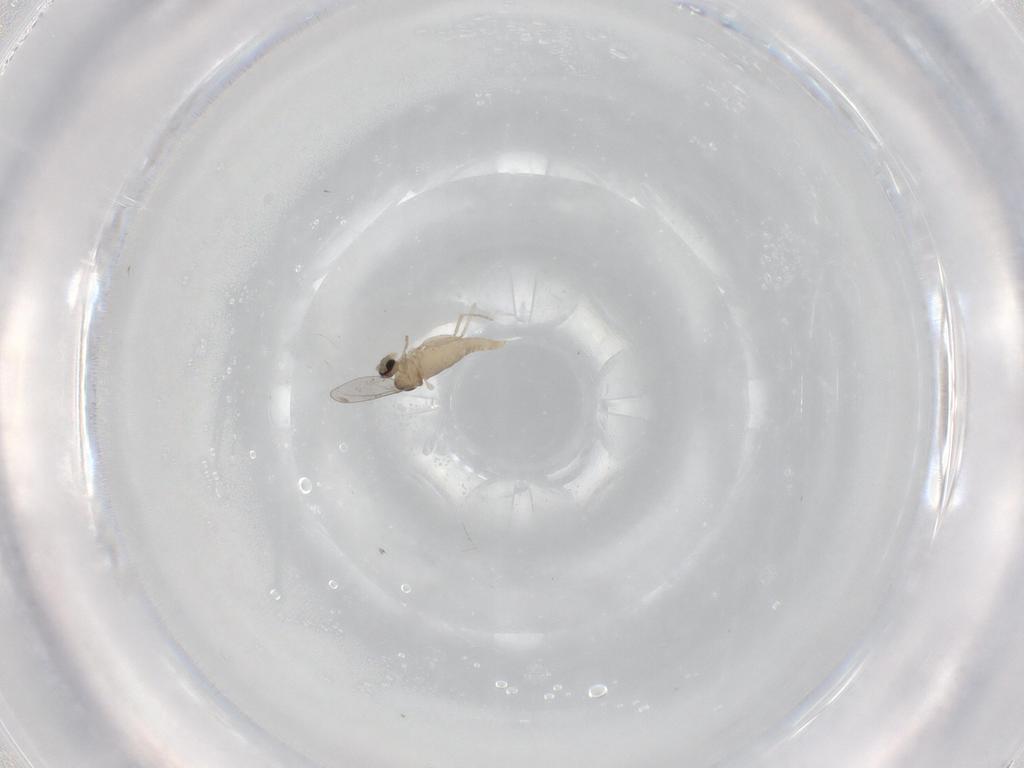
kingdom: Animalia
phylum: Arthropoda
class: Insecta
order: Diptera
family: Cecidomyiidae
